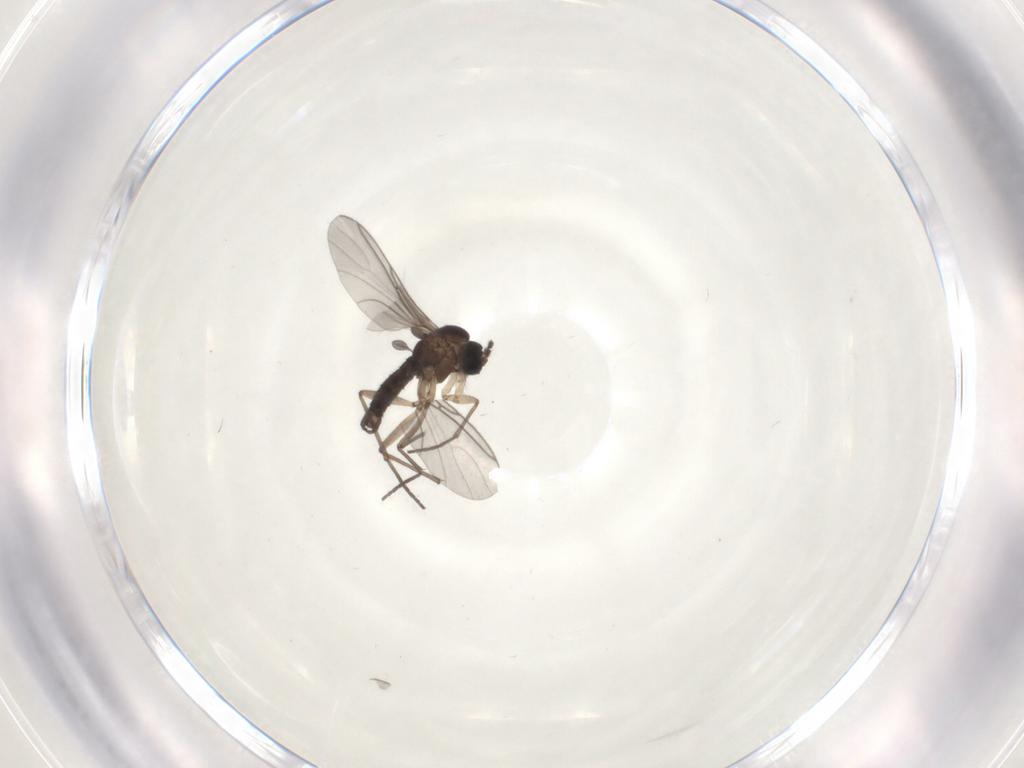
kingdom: Animalia
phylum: Arthropoda
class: Insecta
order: Diptera
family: Sciaridae
